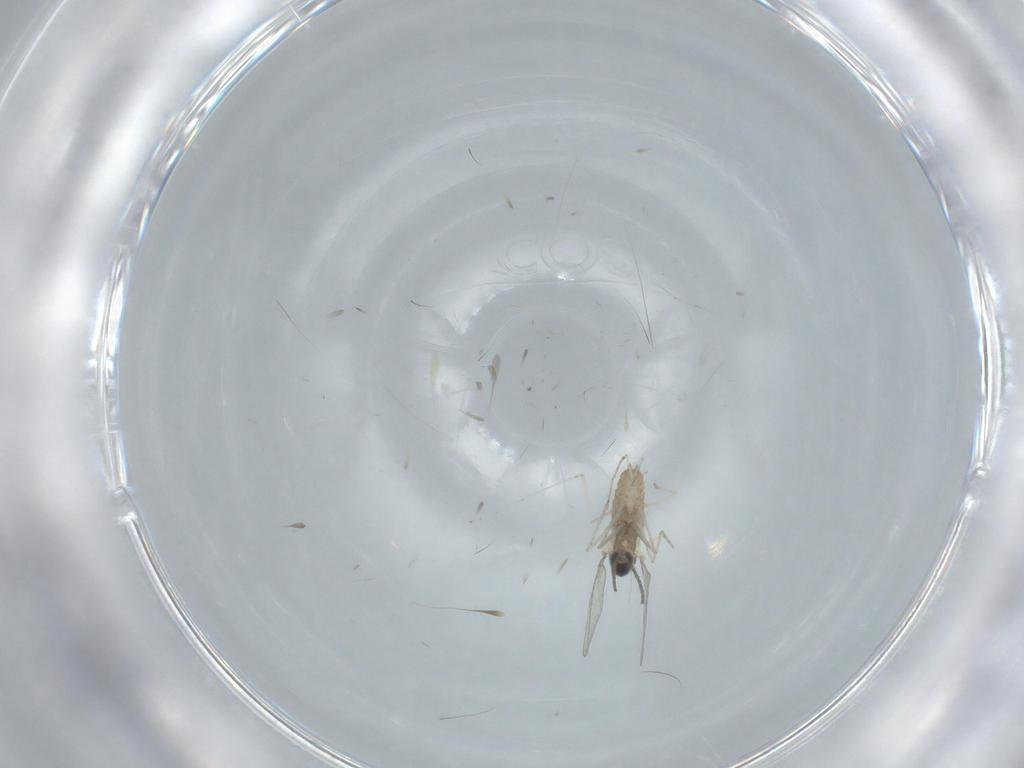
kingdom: Animalia
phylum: Arthropoda
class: Insecta
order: Diptera
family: Cecidomyiidae
